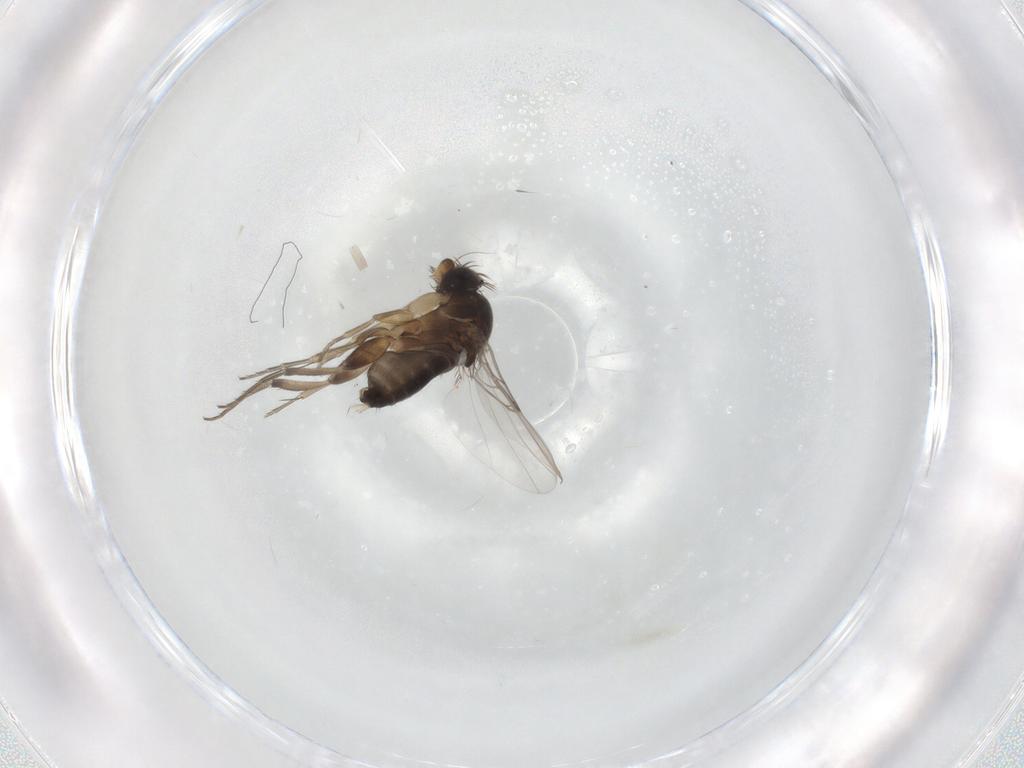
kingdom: Animalia
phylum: Arthropoda
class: Insecta
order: Diptera
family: Phoridae
